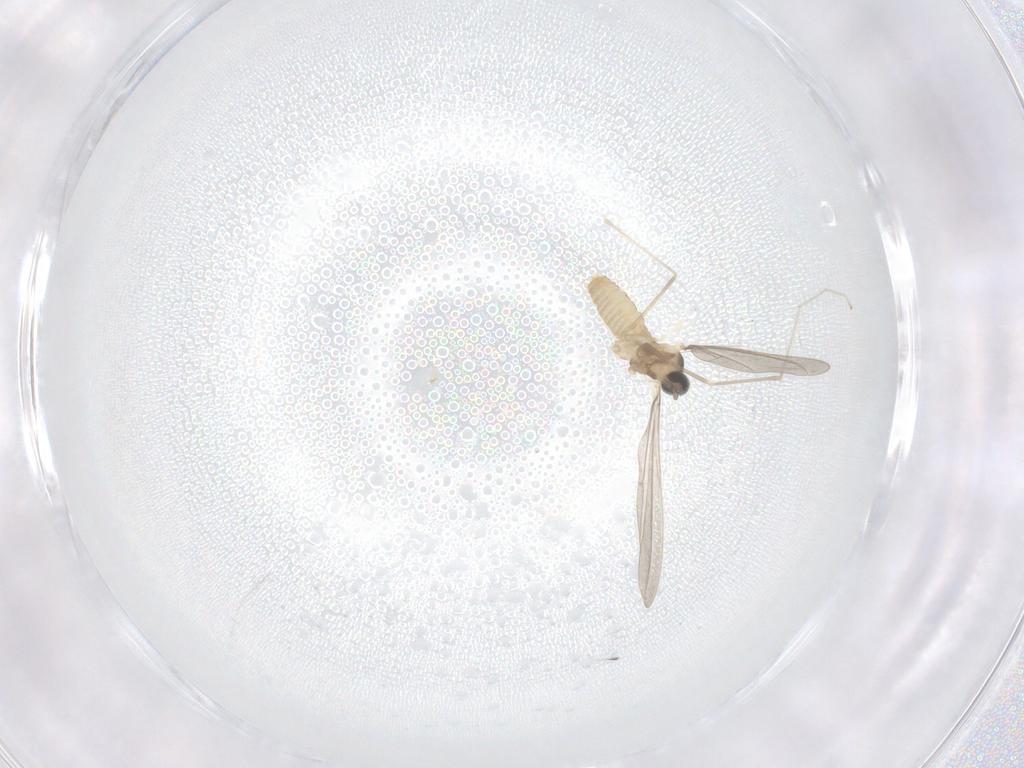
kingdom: Animalia
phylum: Arthropoda
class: Insecta
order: Diptera
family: Cecidomyiidae
